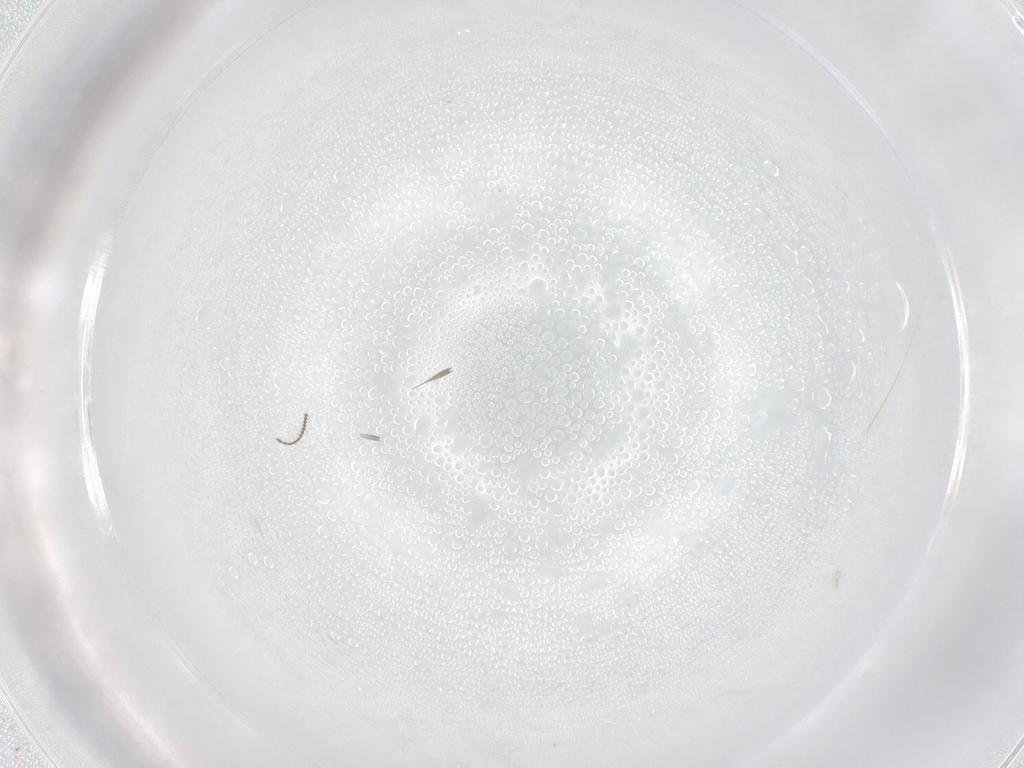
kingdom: Animalia
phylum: Arthropoda
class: Insecta
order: Diptera
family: Ceratopogonidae
